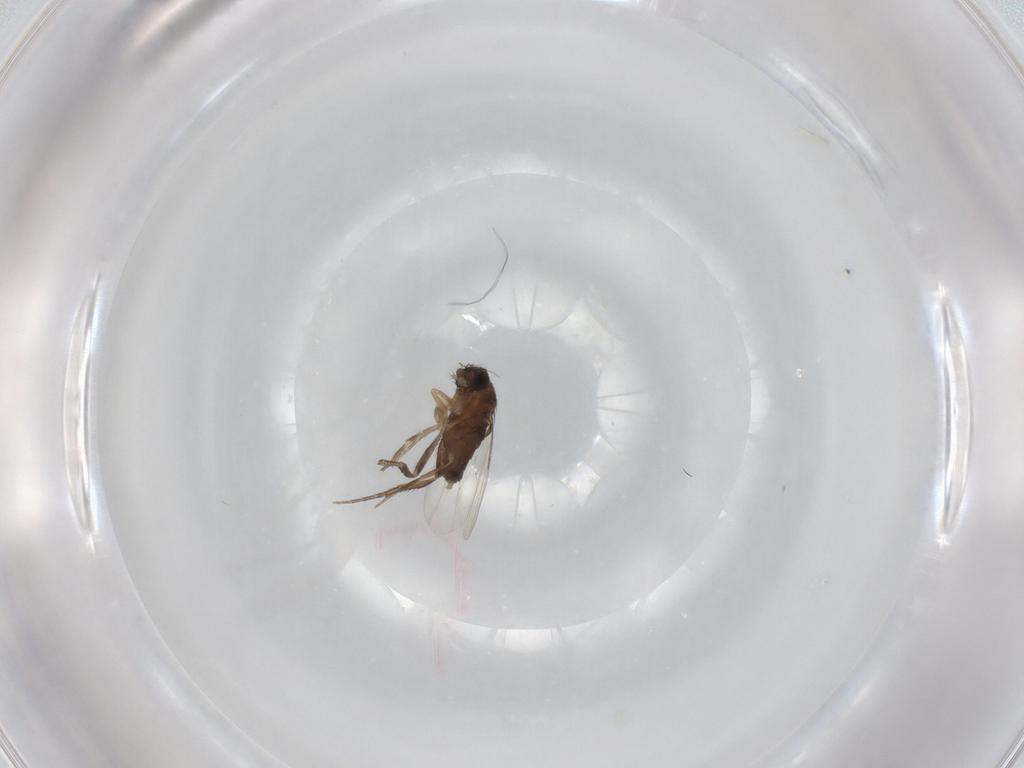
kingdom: Animalia
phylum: Arthropoda
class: Insecta
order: Diptera
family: Phoridae
